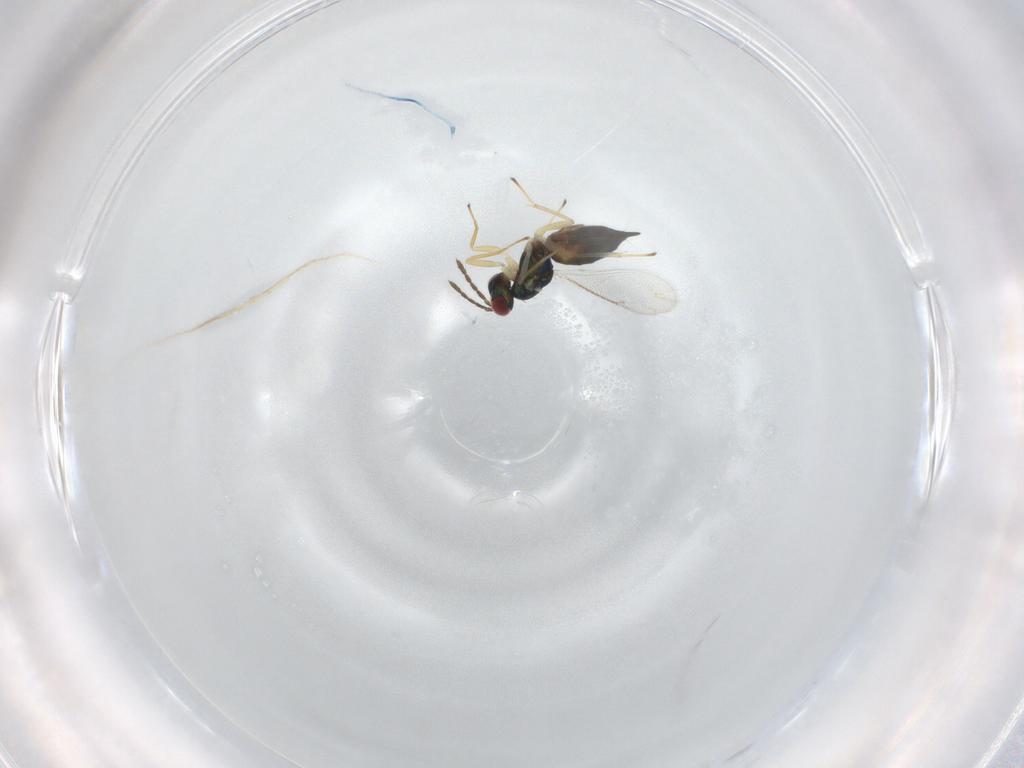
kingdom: Animalia
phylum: Arthropoda
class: Insecta
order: Hymenoptera
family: Eulophidae
